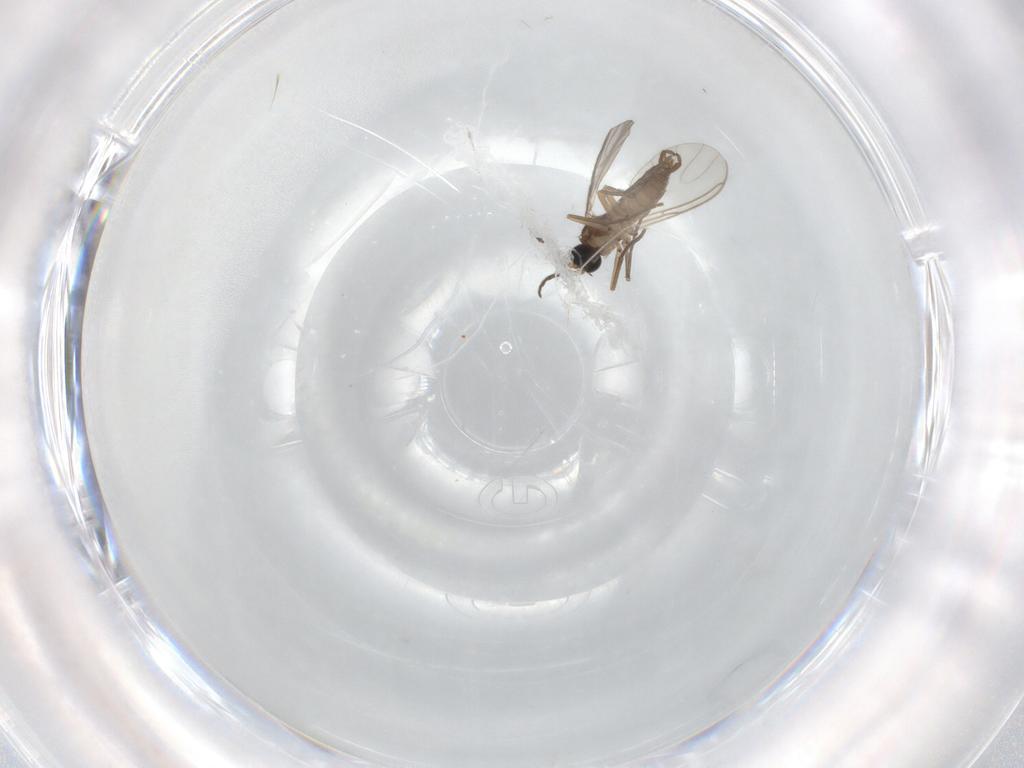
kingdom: Animalia
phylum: Arthropoda
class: Insecta
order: Diptera
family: Sciaridae
